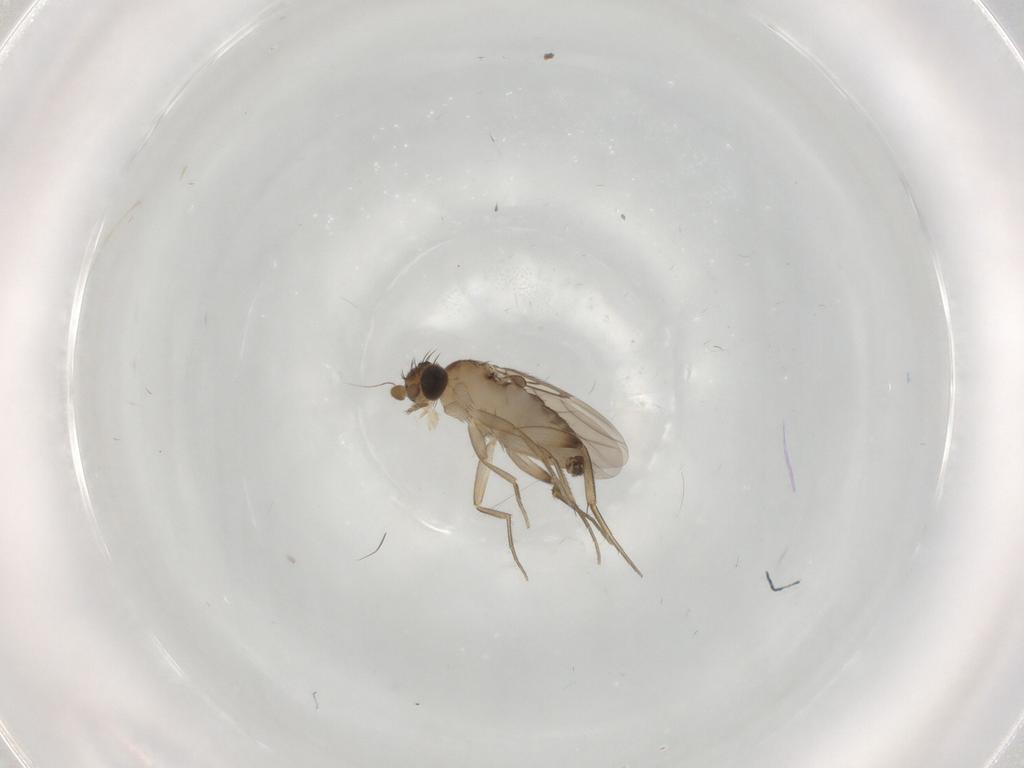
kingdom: Animalia
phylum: Arthropoda
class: Insecta
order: Diptera
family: Phoridae
